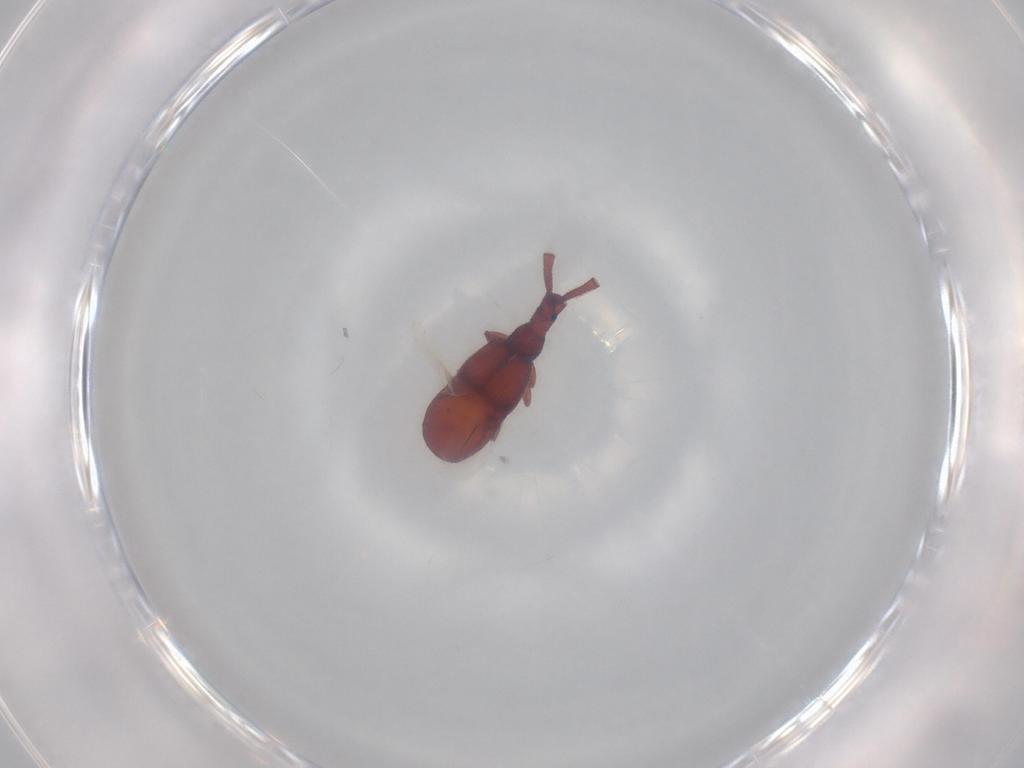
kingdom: Animalia
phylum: Arthropoda
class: Insecta
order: Coleoptera
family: Staphylinidae
